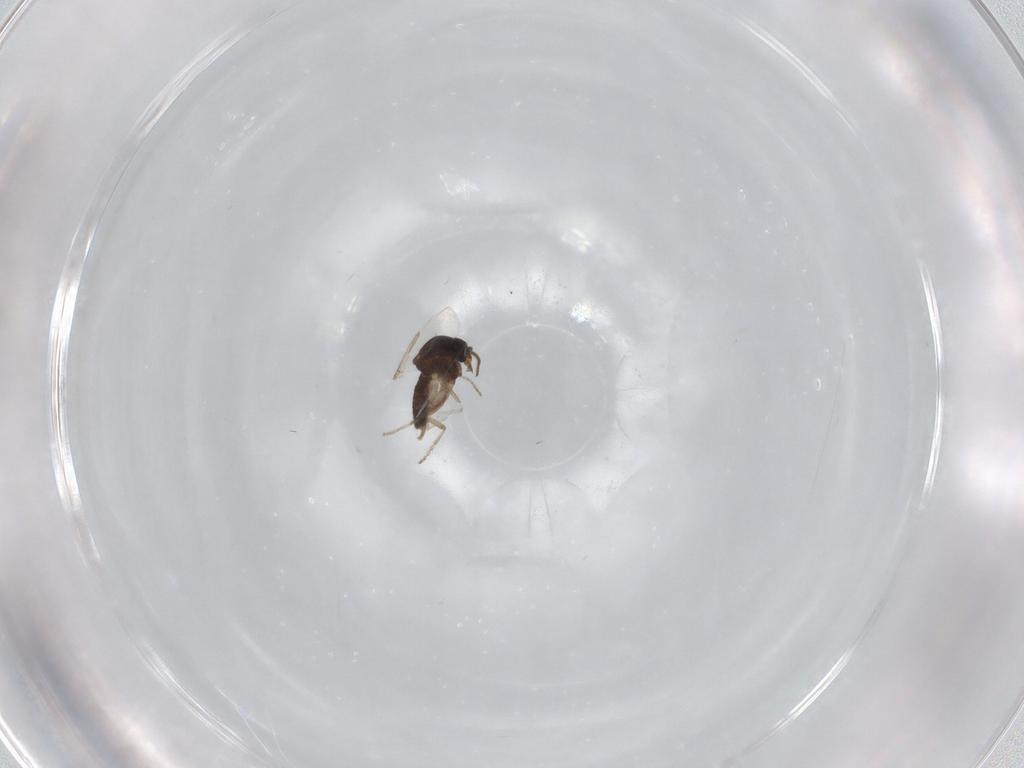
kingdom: Animalia
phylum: Arthropoda
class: Insecta
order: Diptera
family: Ceratopogonidae
